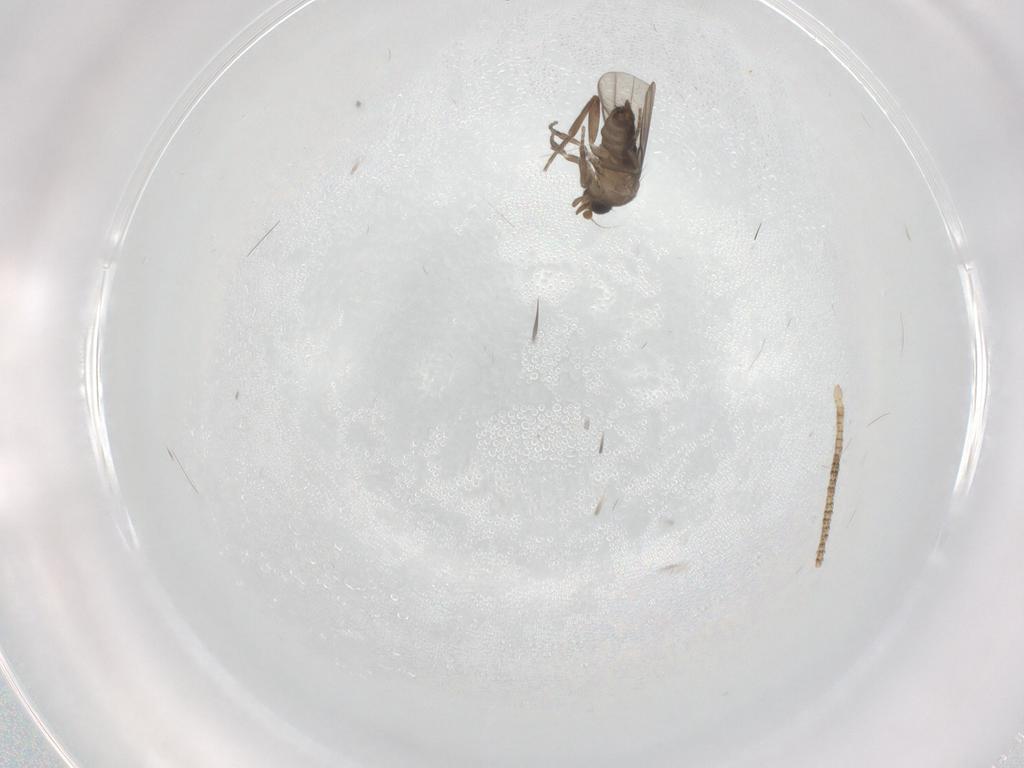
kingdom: Animalia
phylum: Arthropoda
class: Insecta
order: Diptera
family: Phoridae
